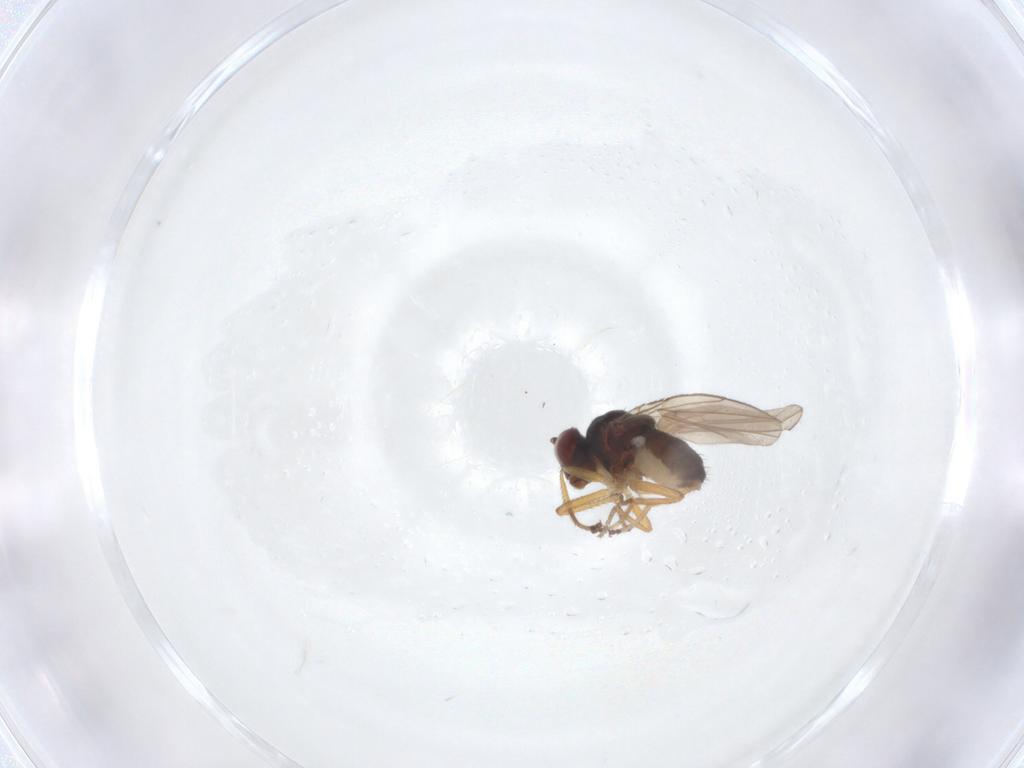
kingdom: Animalia
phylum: Arthropoda
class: Insecta
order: Diptera
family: Ephydridae
